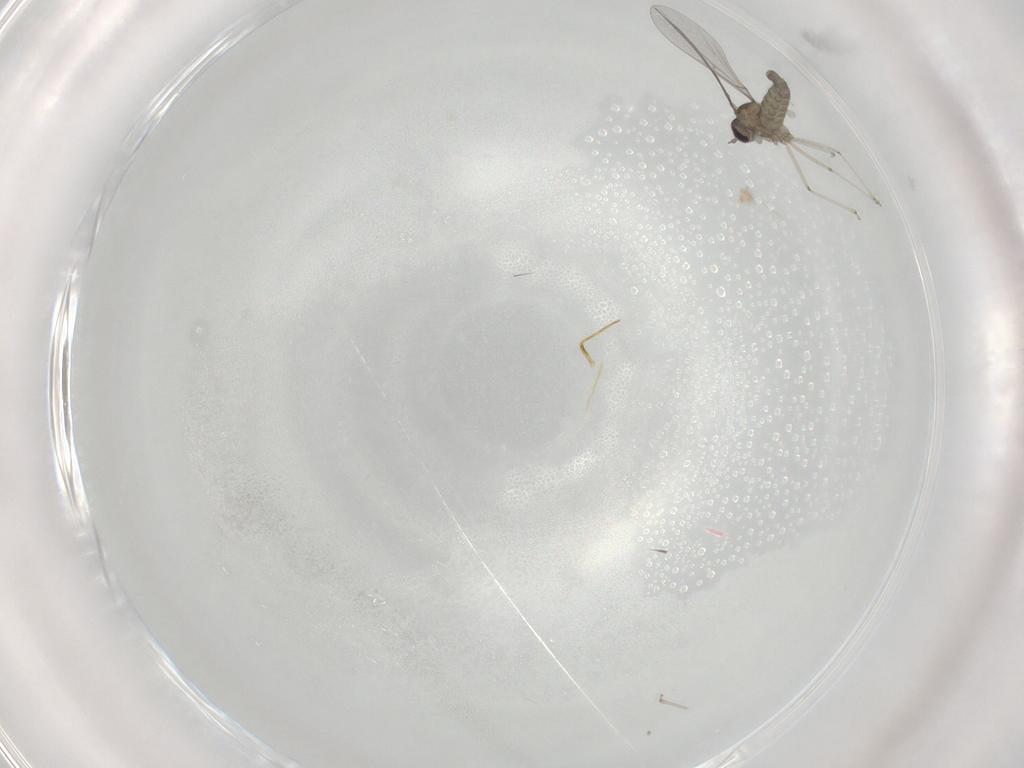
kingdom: Animalia
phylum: Arthropoda
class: Insecta
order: Diptera
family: Cecidomyiidae
